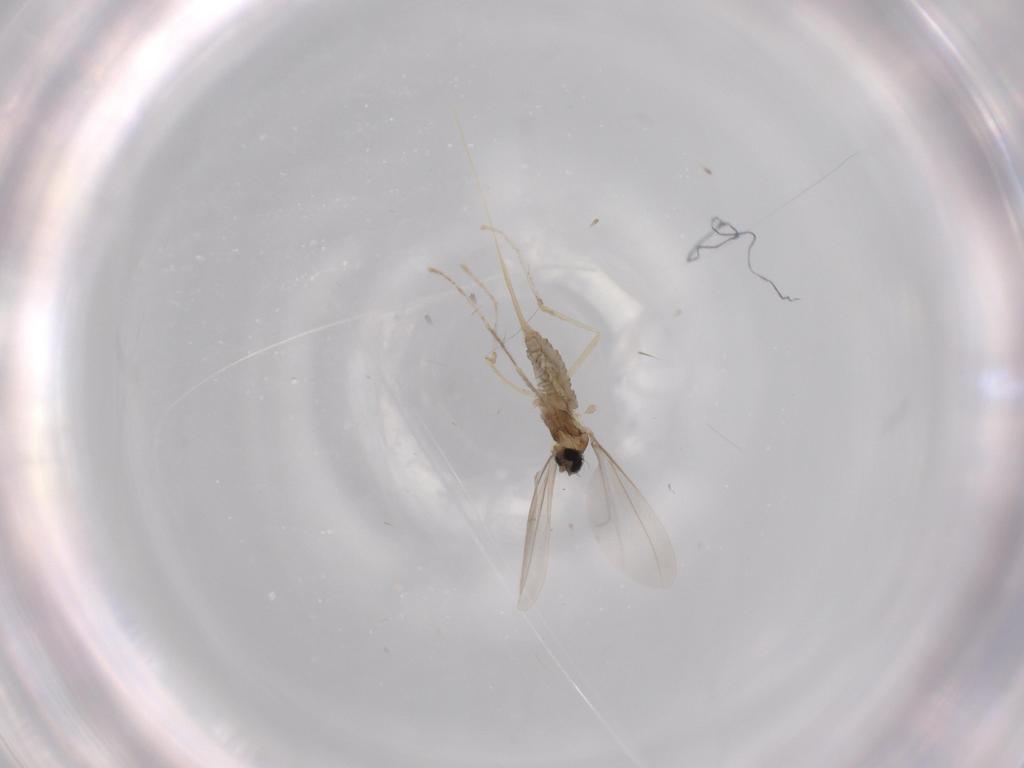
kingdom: Animalia
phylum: Arthropoda
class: Insecta
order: Diptera
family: Cecidomyiidae
